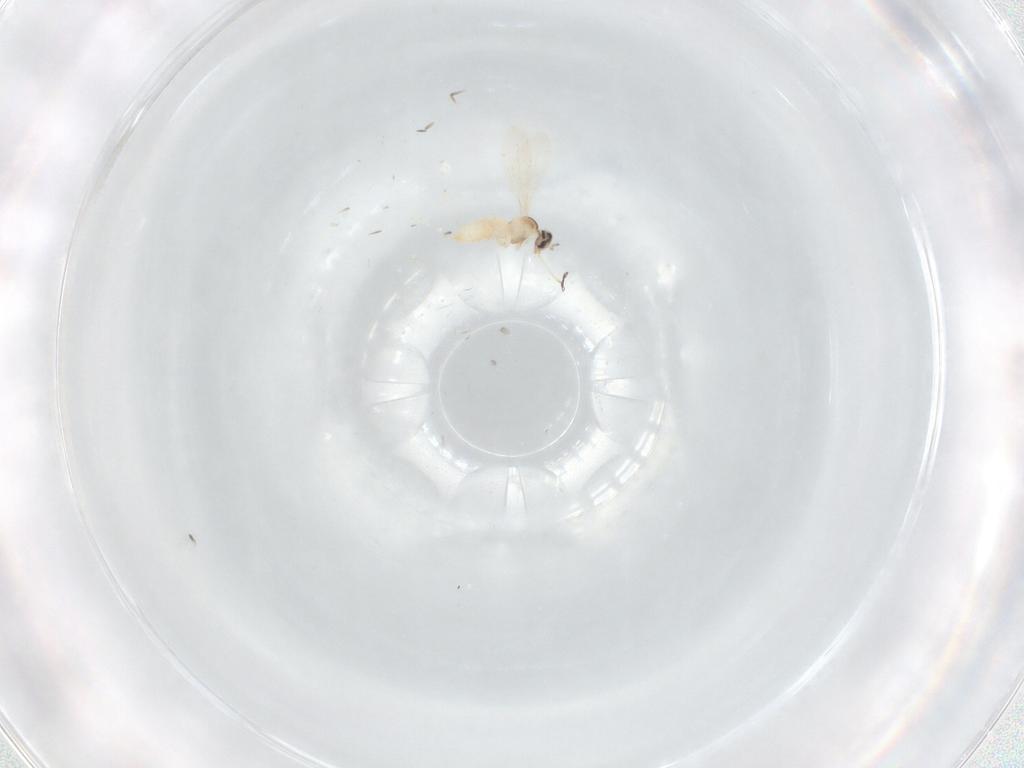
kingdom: Animalia
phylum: Arthropoda
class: Insecta
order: Diptera
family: Cecidomyiidae
